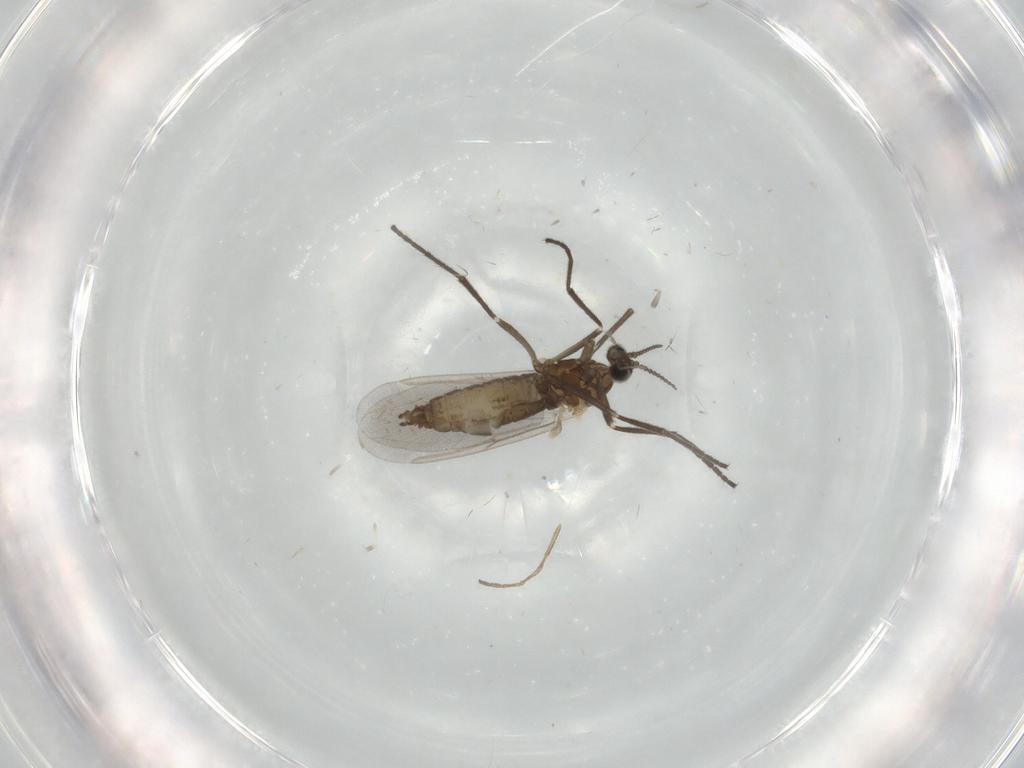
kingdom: Animalia
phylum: Arthropoda
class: Insecta
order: Diptera
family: Cecidomyiidae
